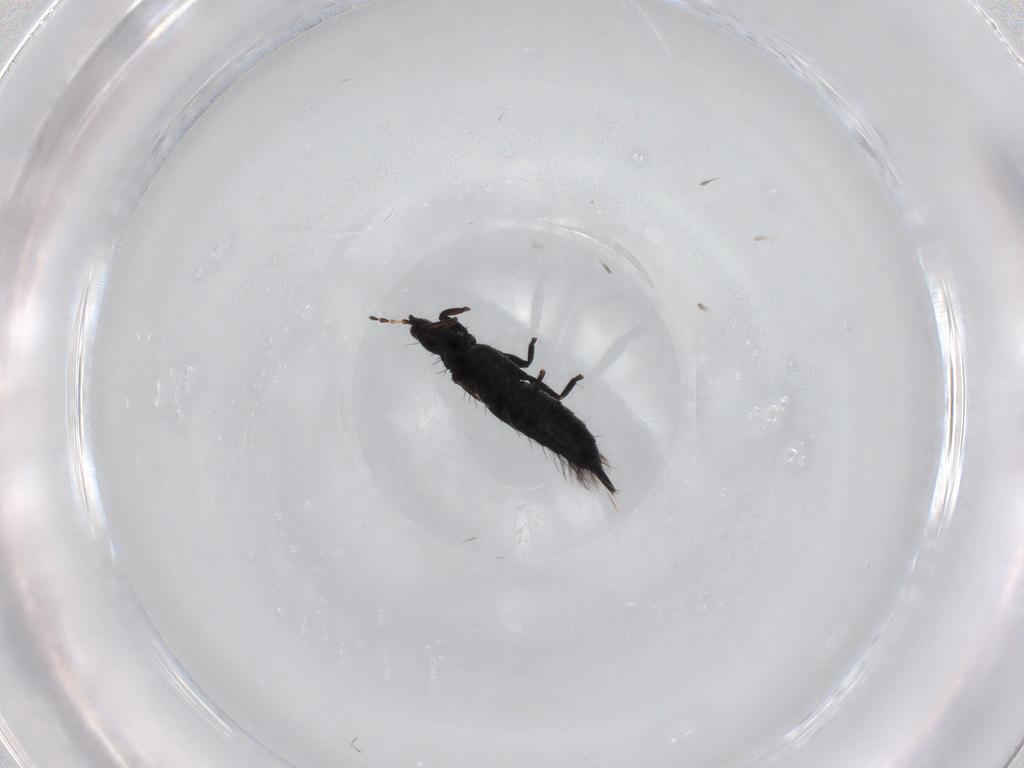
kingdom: Animalia
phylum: Arthropoda
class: Insecta
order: Thysanoptera
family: Phlaeothripidae
